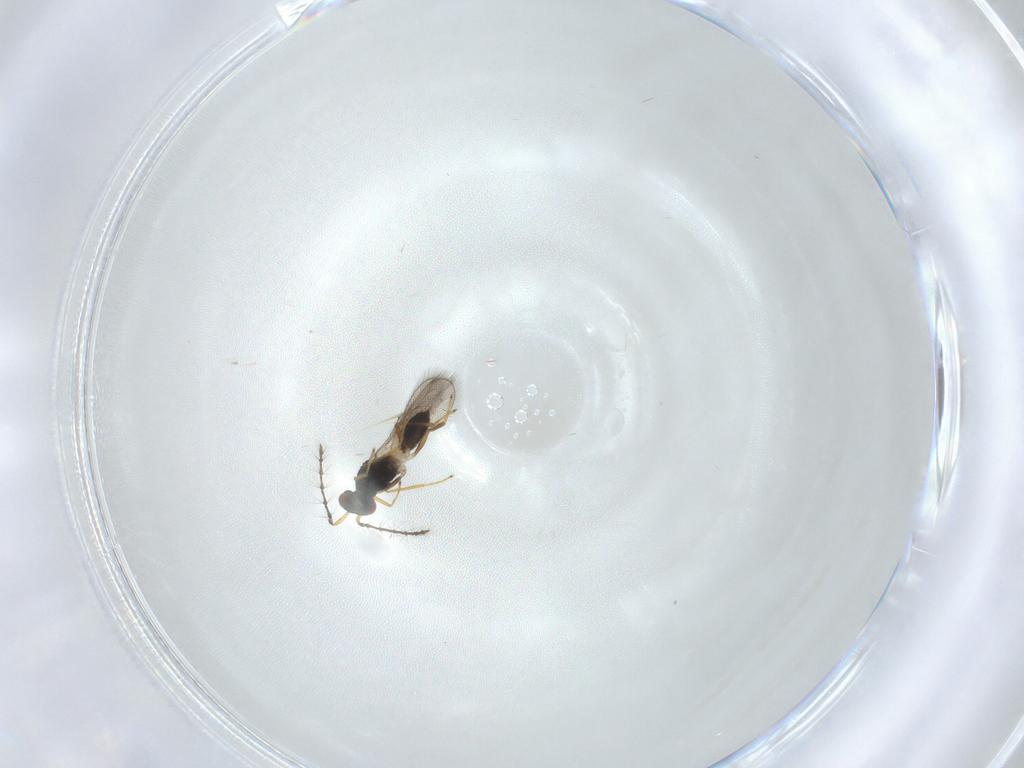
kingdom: Animalia
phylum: Arthropoda
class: Insecta
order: Hymenoptera
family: Eulophidae
